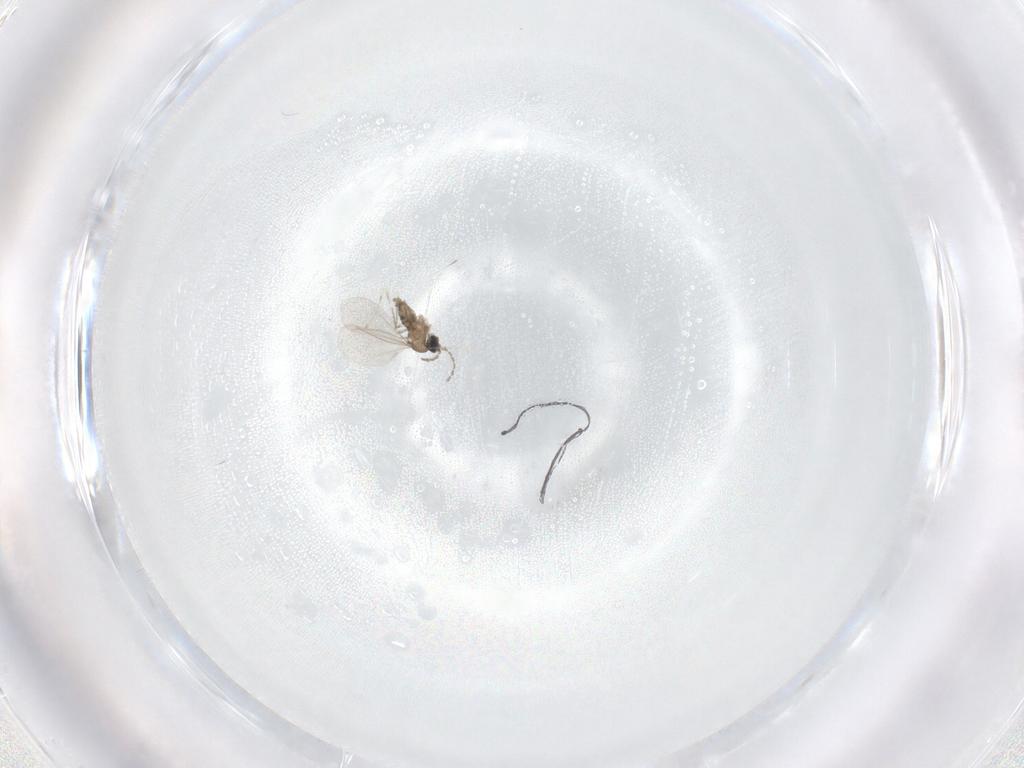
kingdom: Animalia
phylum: Arthropoda
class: Insecta
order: Diptera
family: Cecidomyiidae
